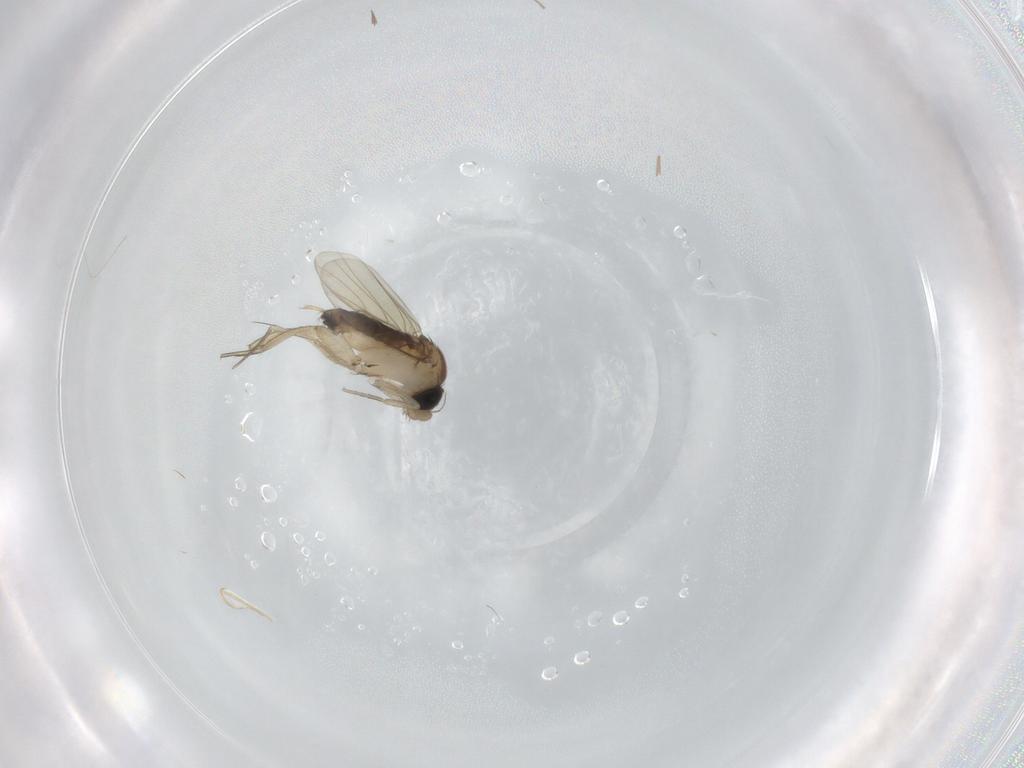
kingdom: Animalia
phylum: Arthropoda
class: Insecta
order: Diptera
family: Phoridae
